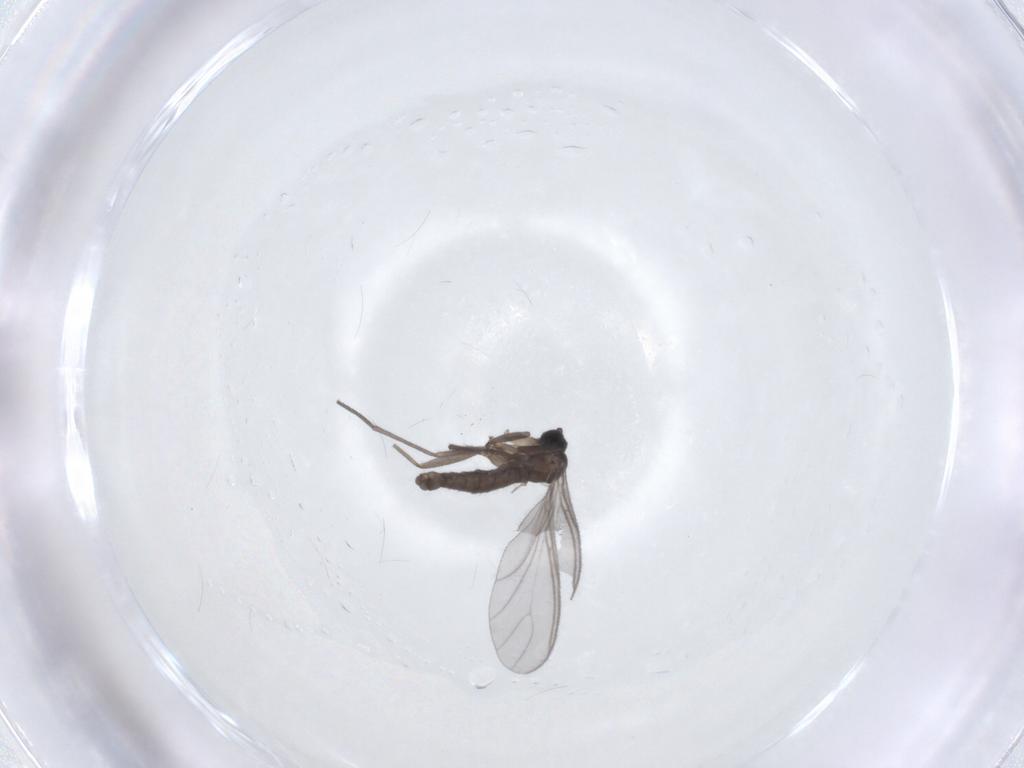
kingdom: Animalia
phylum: Arthropoda
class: Insecta
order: Diptera
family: Sciaridae
